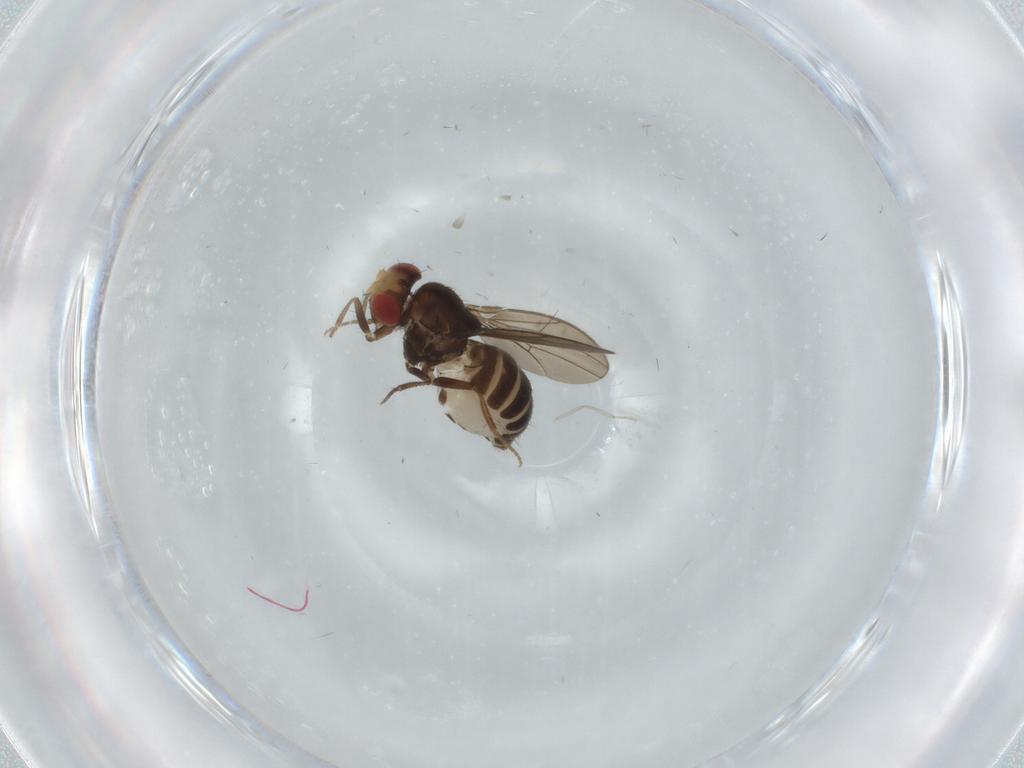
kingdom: Animalia
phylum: Arthropoda
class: Insecta
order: Diptera
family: Drosophilidae
